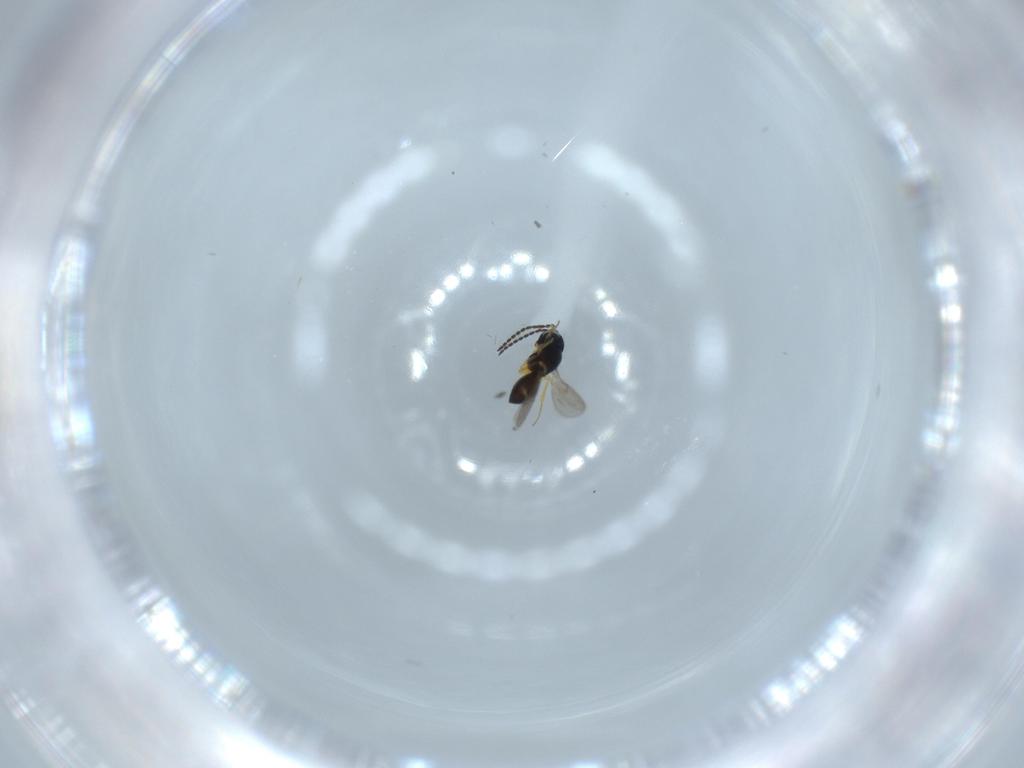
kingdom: Animalia
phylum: Arthropoda
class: Insecta
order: Hymenoptera
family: Scelionidae
